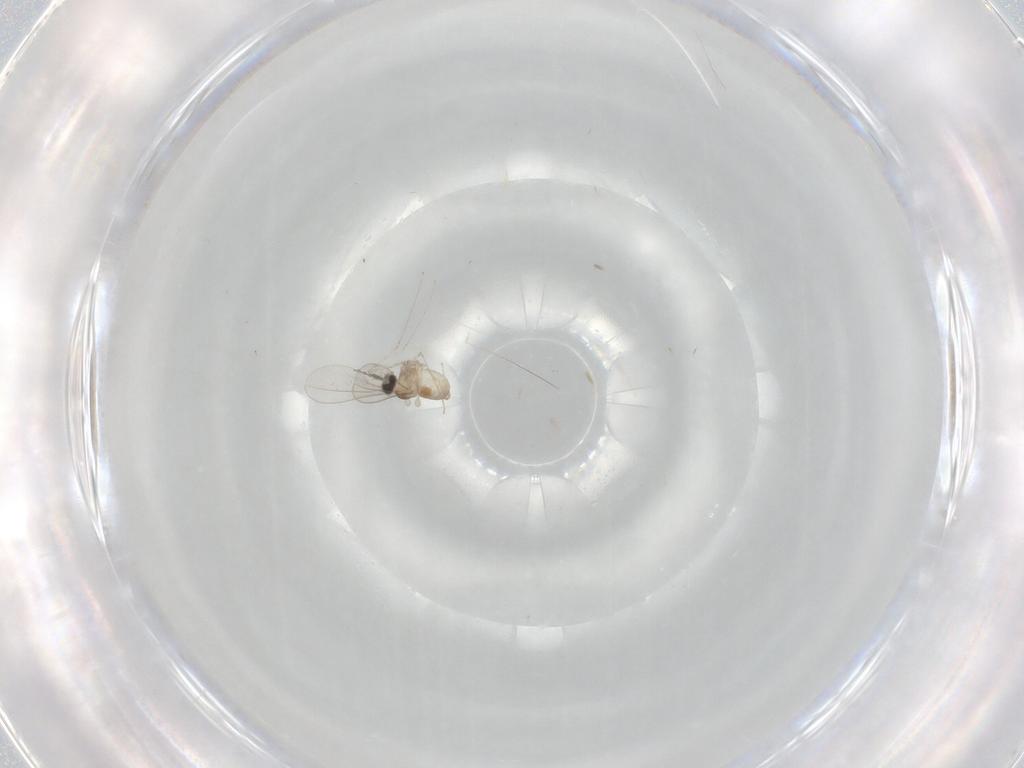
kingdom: Animalia
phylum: Arthropoda
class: Insecta
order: Diptera
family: Cecidomyiidae
